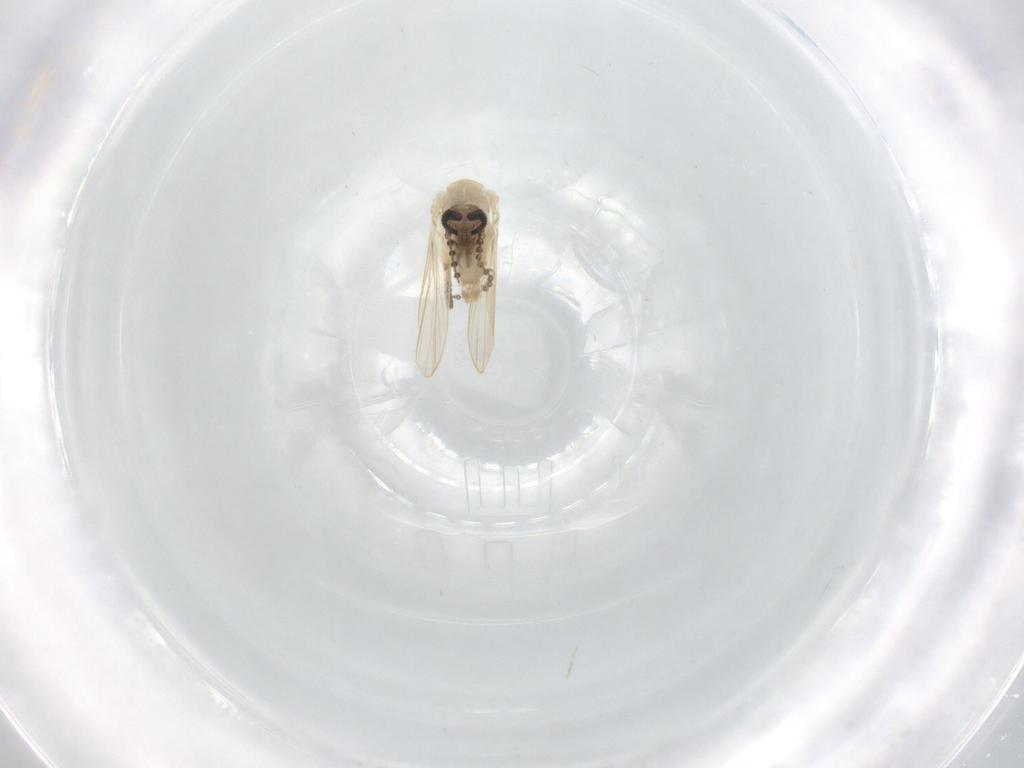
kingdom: Animalia
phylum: Arthropoda
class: Insecta
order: Diptera
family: Psychodidae
